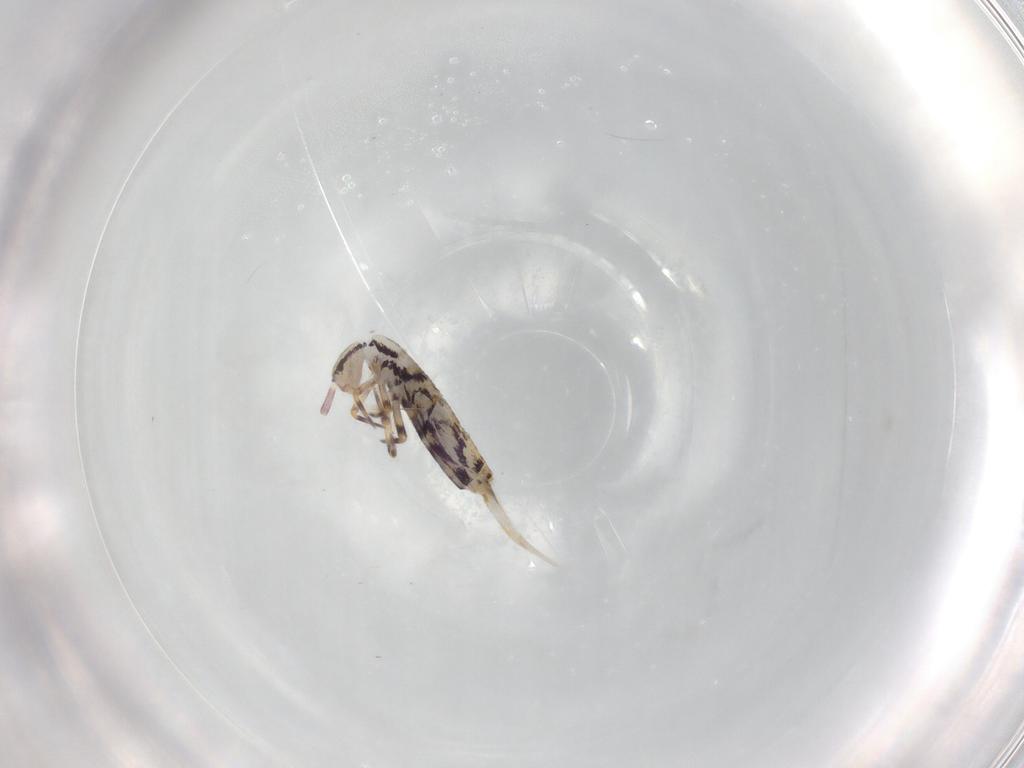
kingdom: Animalia
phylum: Arthropoda
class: Collembola
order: Entomobryomorpha
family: Entomobryidae
